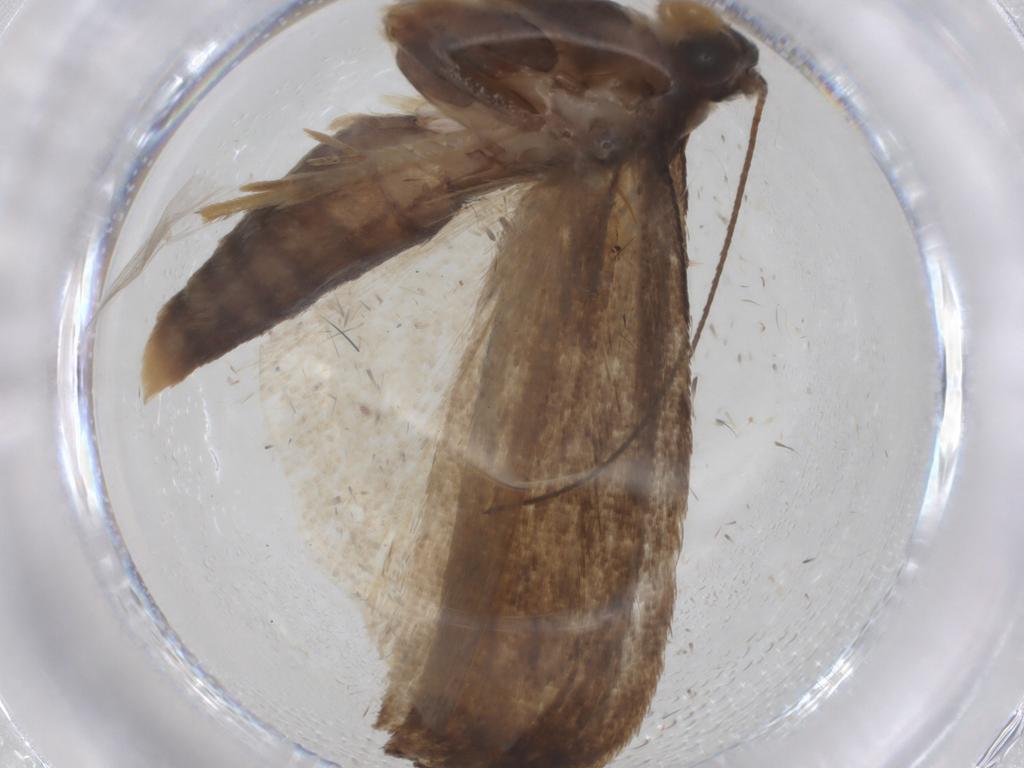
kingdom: Animalia
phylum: Arthropoda
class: Insecta
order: Lepidoptera
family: Crambidae
